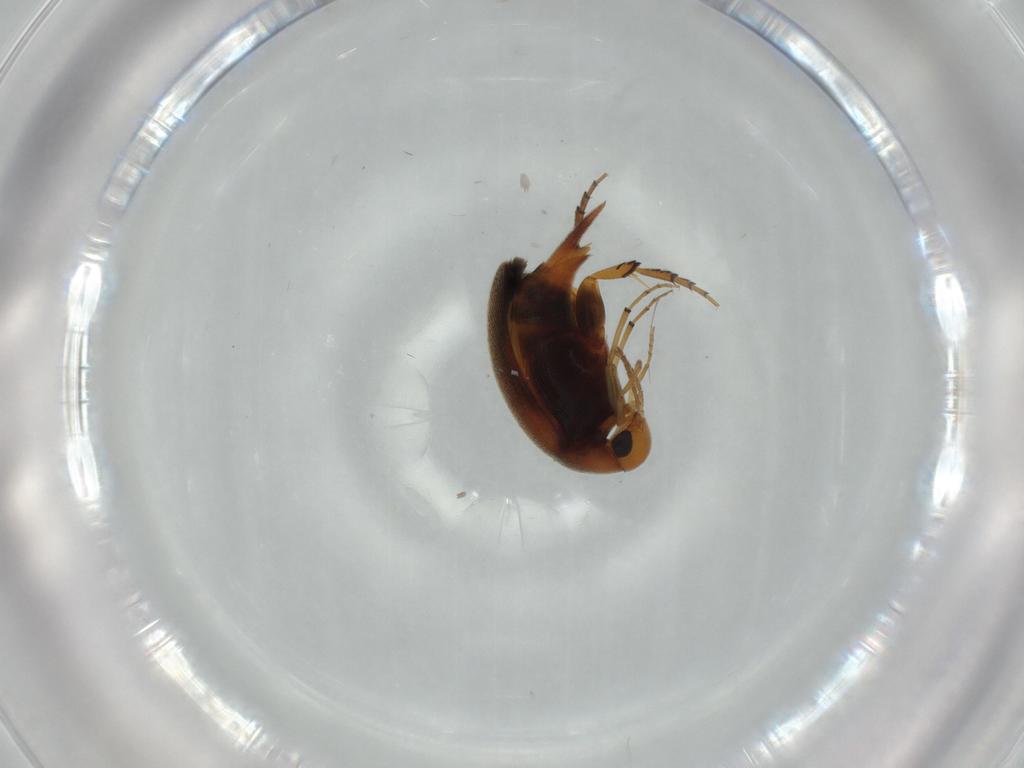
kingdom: Animalia
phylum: Arthropoda
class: Insecta
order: Coleoptera
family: Mordellidae
